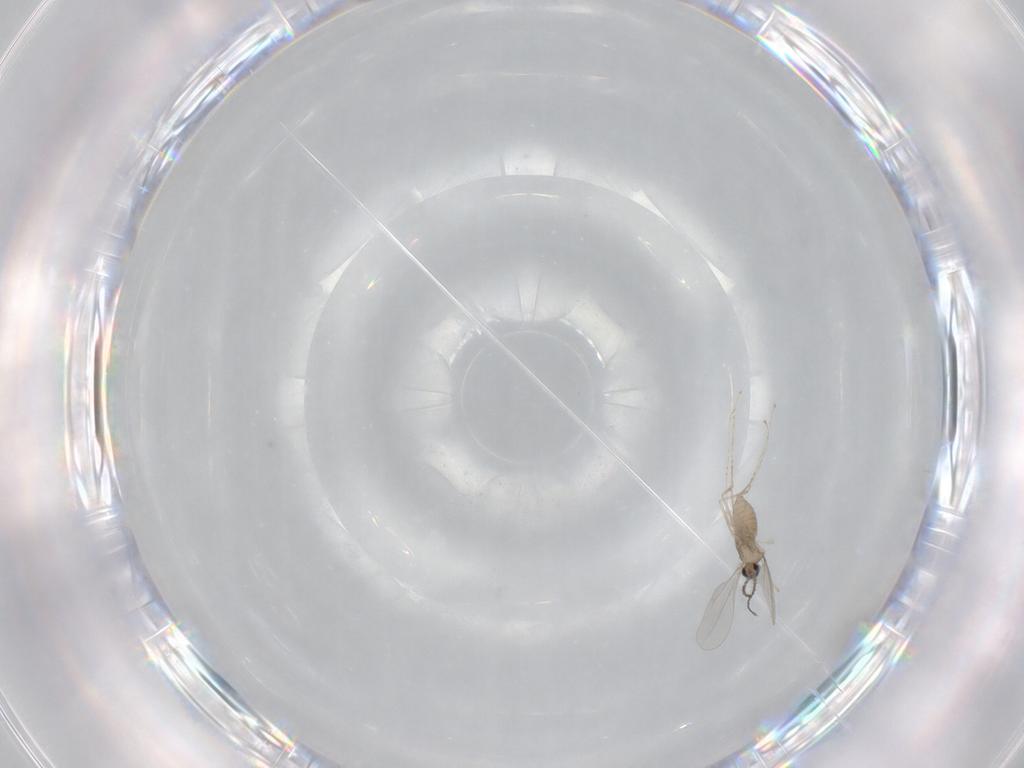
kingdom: Animalia
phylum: Arthropoda
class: Insecta
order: Diptera
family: Cecidomyiidae
